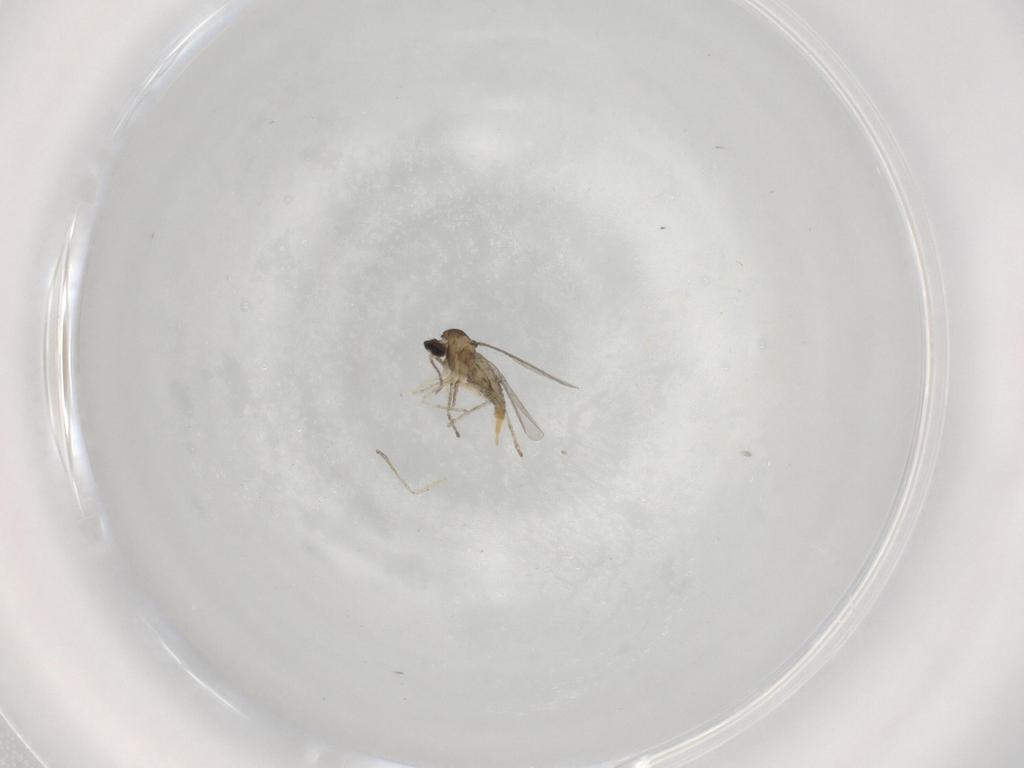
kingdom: Animalia
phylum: Arthropoda
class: Insecta
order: Diptera
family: Cecidomyiidae
